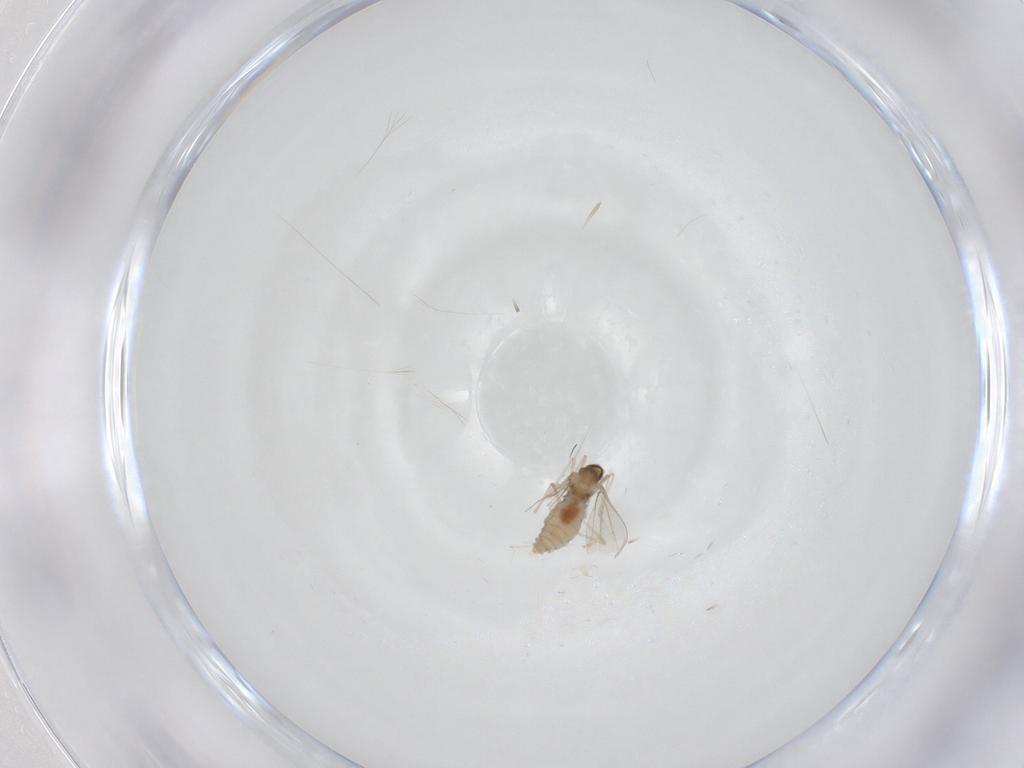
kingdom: Animalia
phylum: Arthropoda
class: Insecta
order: Diptera
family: Cecidomyiidae
